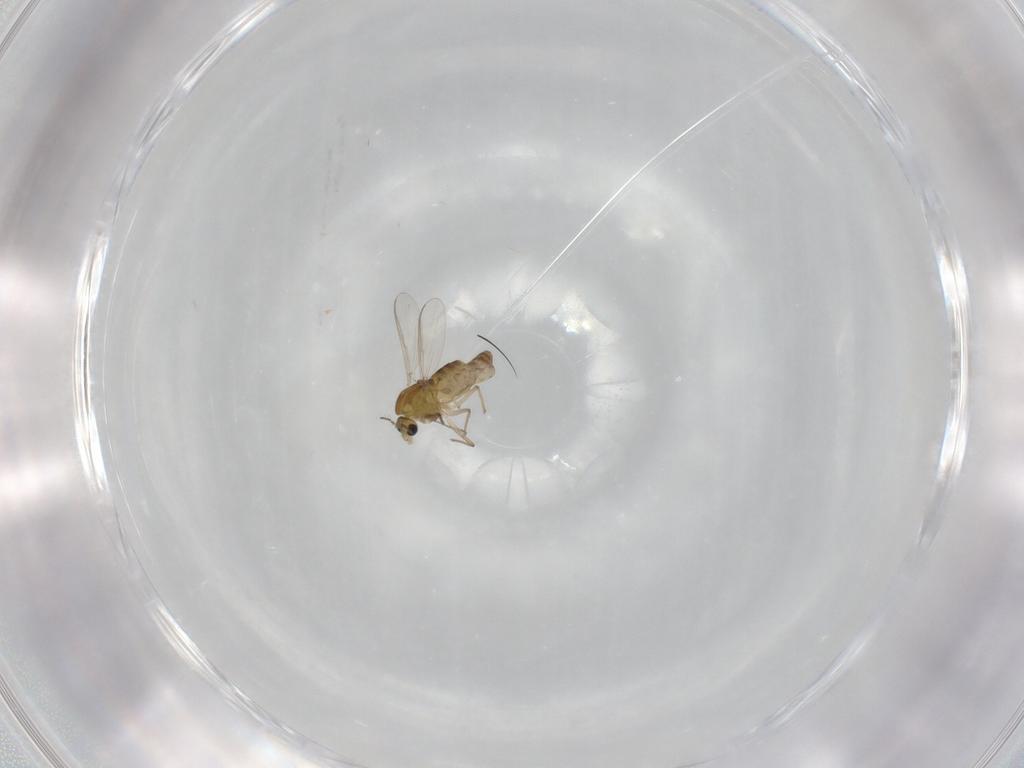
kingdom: Animalia
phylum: Arthropoda
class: Insecta
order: Diptera
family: Chironomidae
